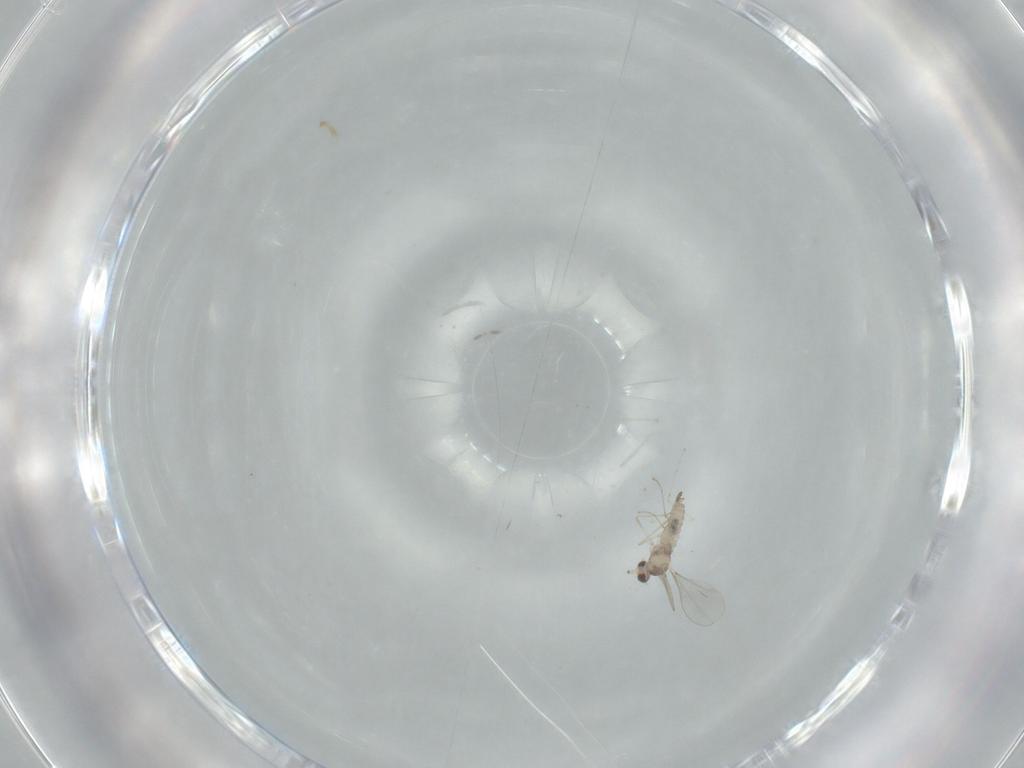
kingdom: Animalia
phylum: Arthropoda
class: Insecta
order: Diptera
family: Cecidomyiidae
